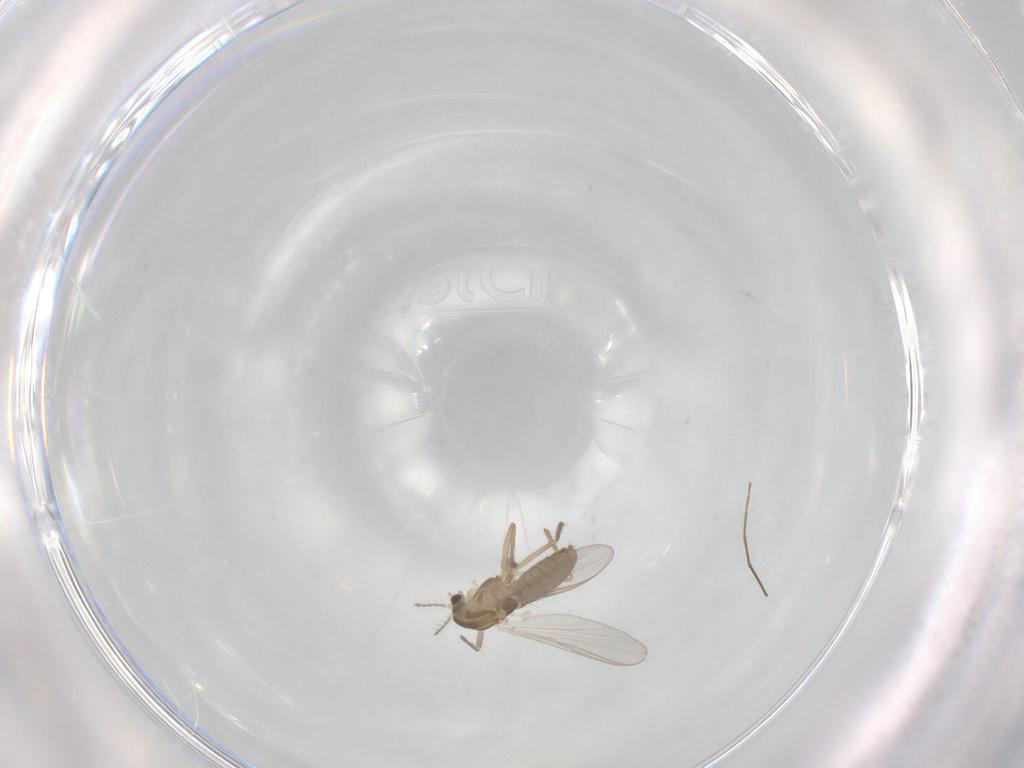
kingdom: Animalia
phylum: Arthropoda
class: Insecta
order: Diptera
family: Chironomidae
